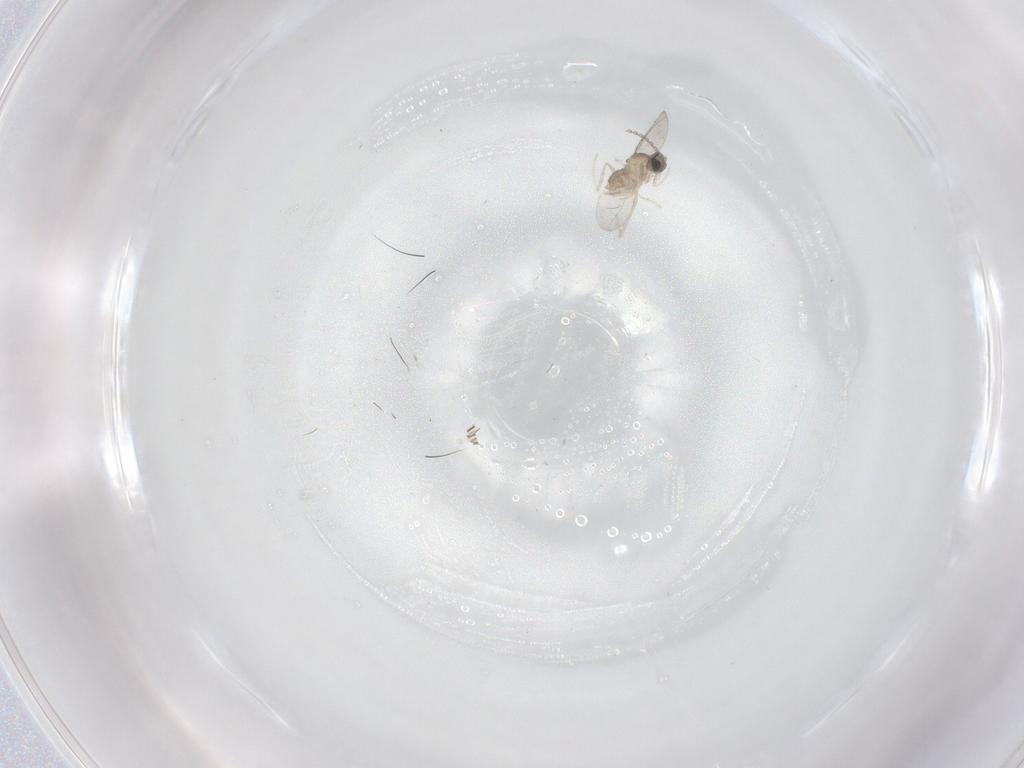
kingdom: Animalia
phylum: Arthropoda
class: Insecta
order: Diptera
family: Cecidomyiidae
